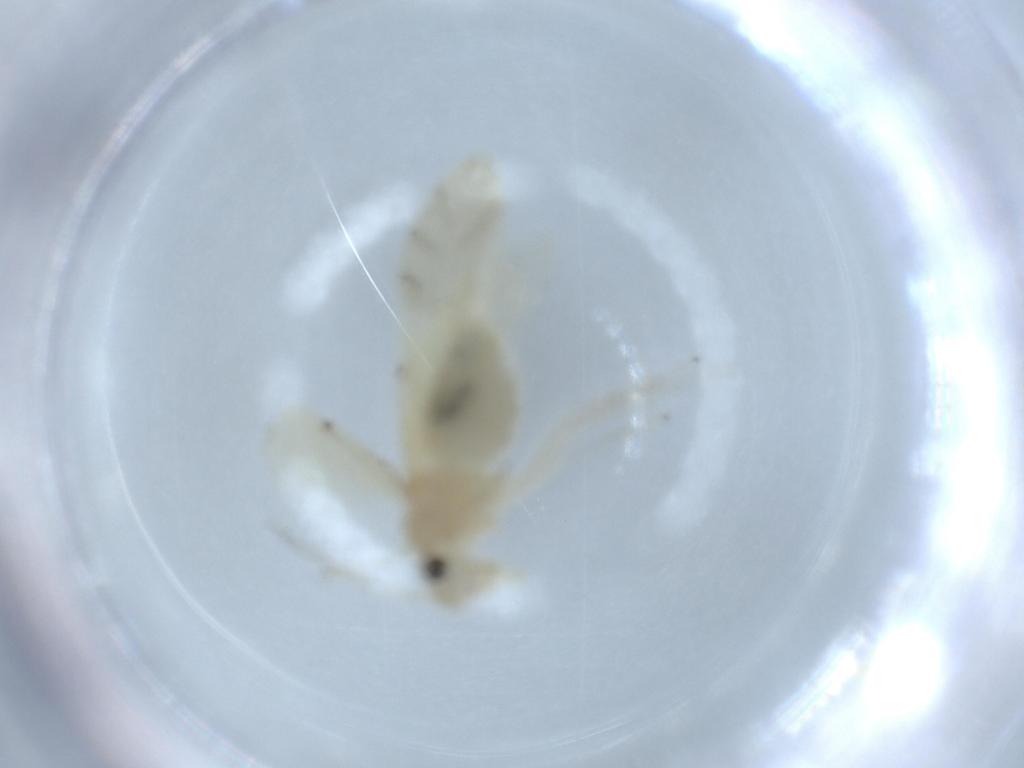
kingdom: Animalia
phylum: Arthropoda
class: Insecta
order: Psocodea
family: Caeciliusidae
